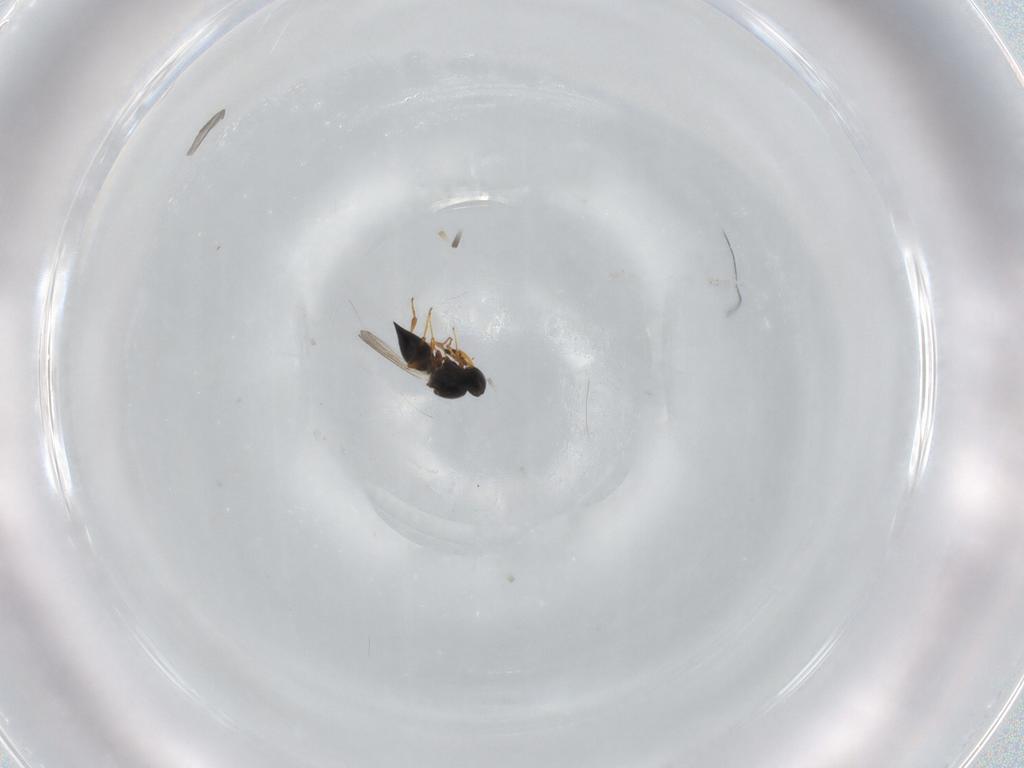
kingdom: Animalia
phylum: Arthropoda
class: Insecta
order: Hymenoptera
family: Platygastridae
